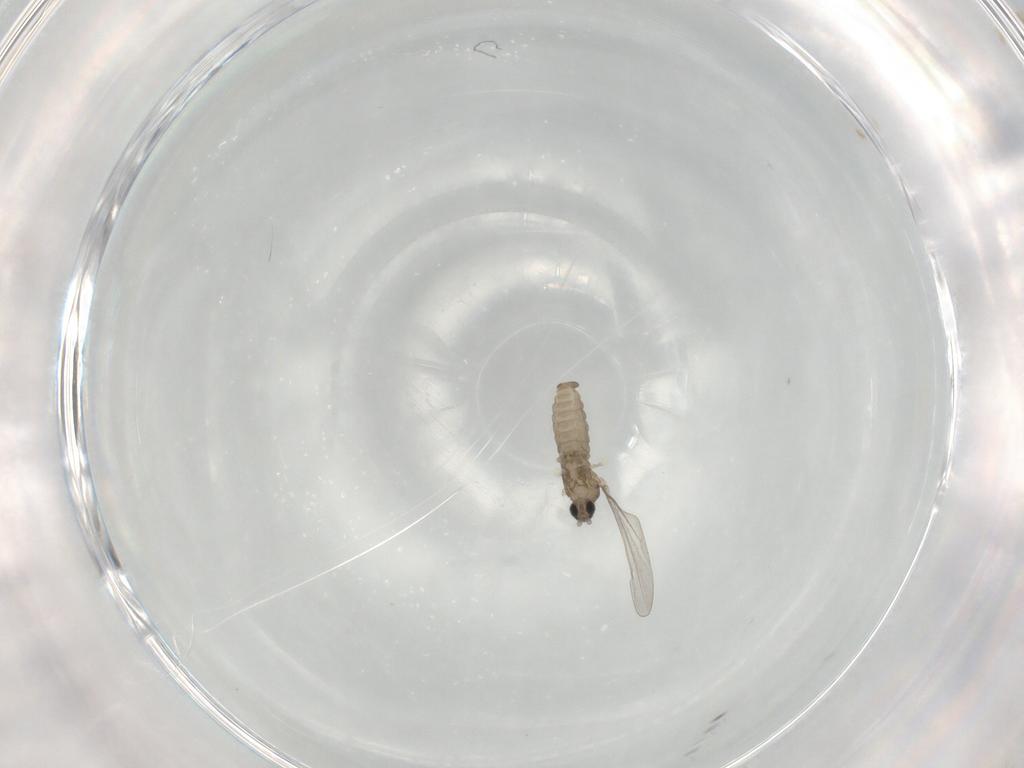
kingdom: Animalia
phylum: Arthropoda
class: Insecta
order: Diptera
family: Cecidomyiidae
